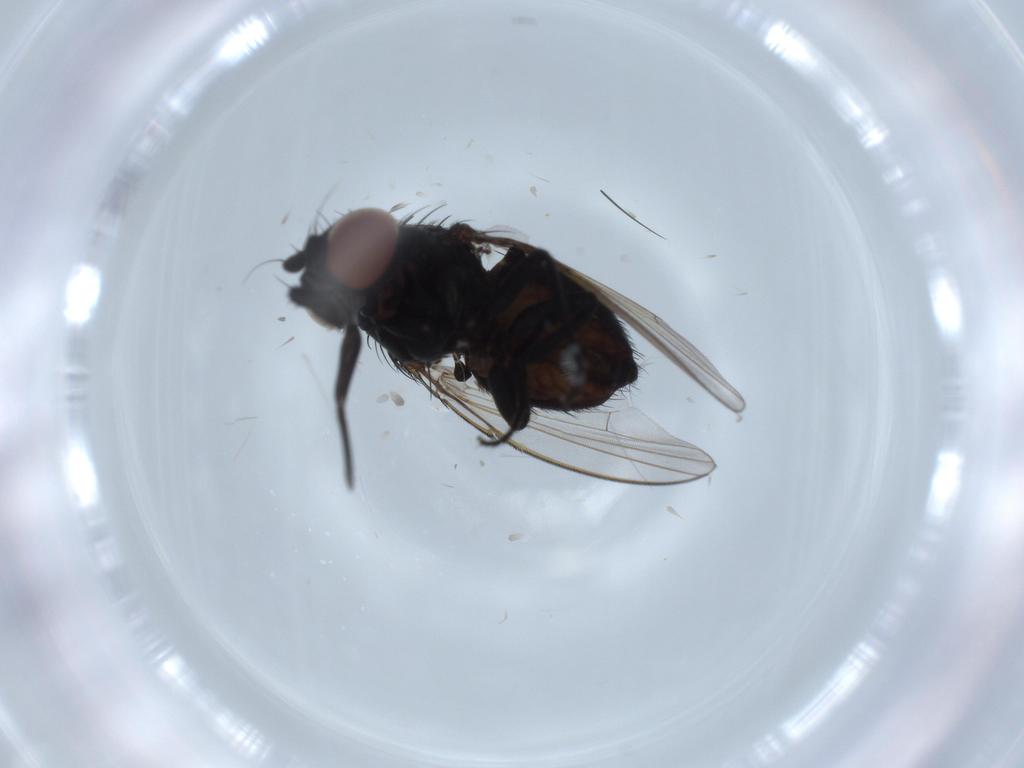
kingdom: Animalia
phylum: Arthropoda
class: Insecta
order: Diptera
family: Cecidomyiidae
